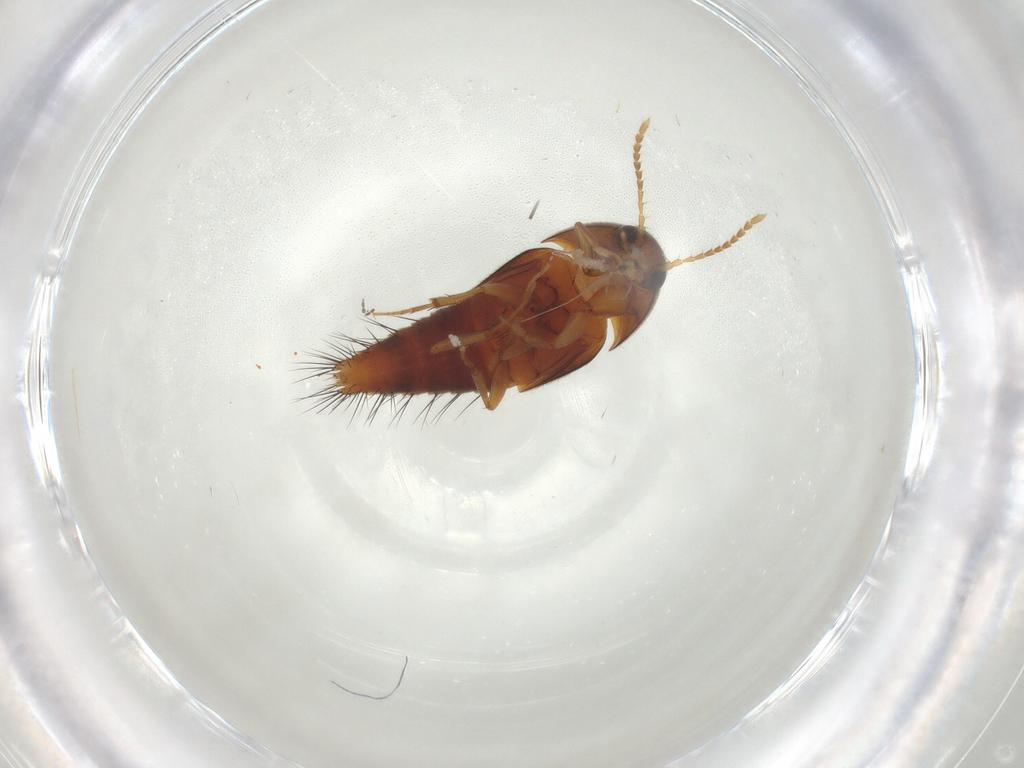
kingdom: Animalia
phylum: Arthropoda
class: Insecta
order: Coleoptera
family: Staphylinidae
